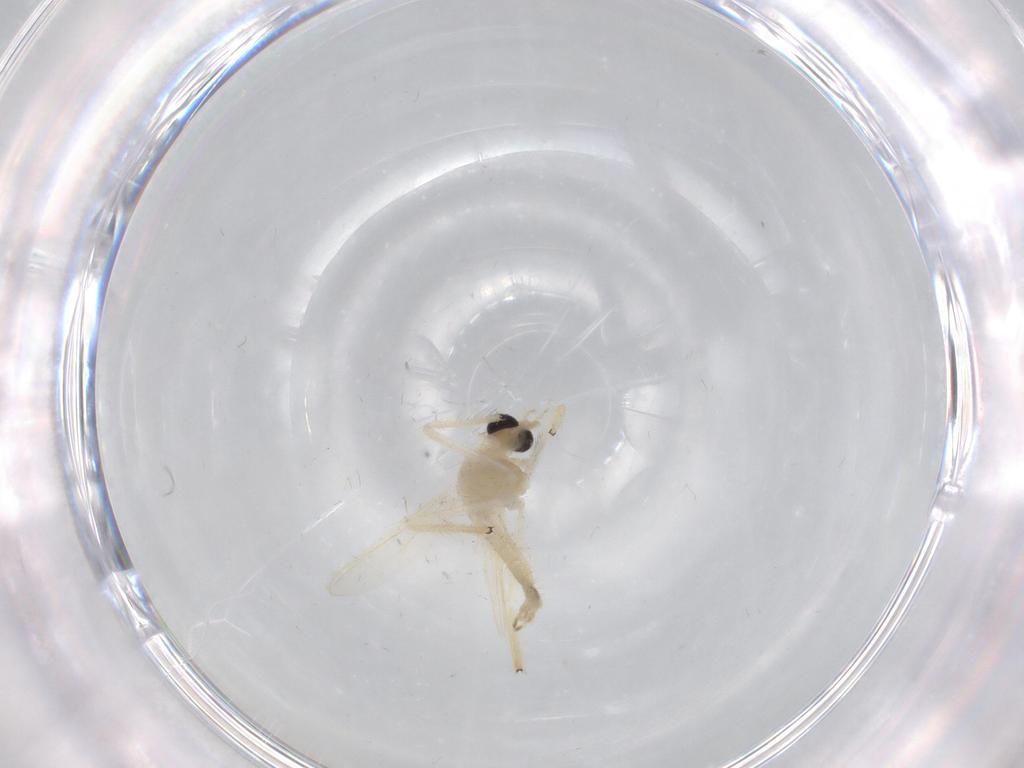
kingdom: Animalia
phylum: Arthropoda
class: Insecta
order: Diptera
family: Chironomidae
